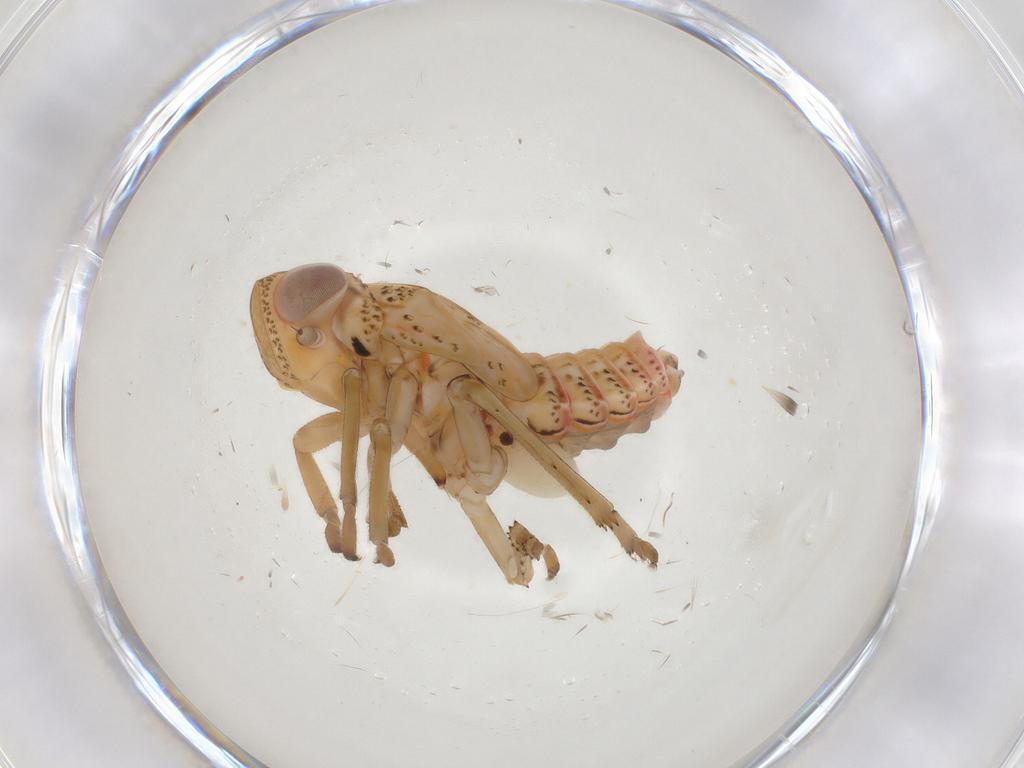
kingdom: Animalia
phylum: Arthropoda
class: Insecta
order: Hemiptera
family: Issidae
